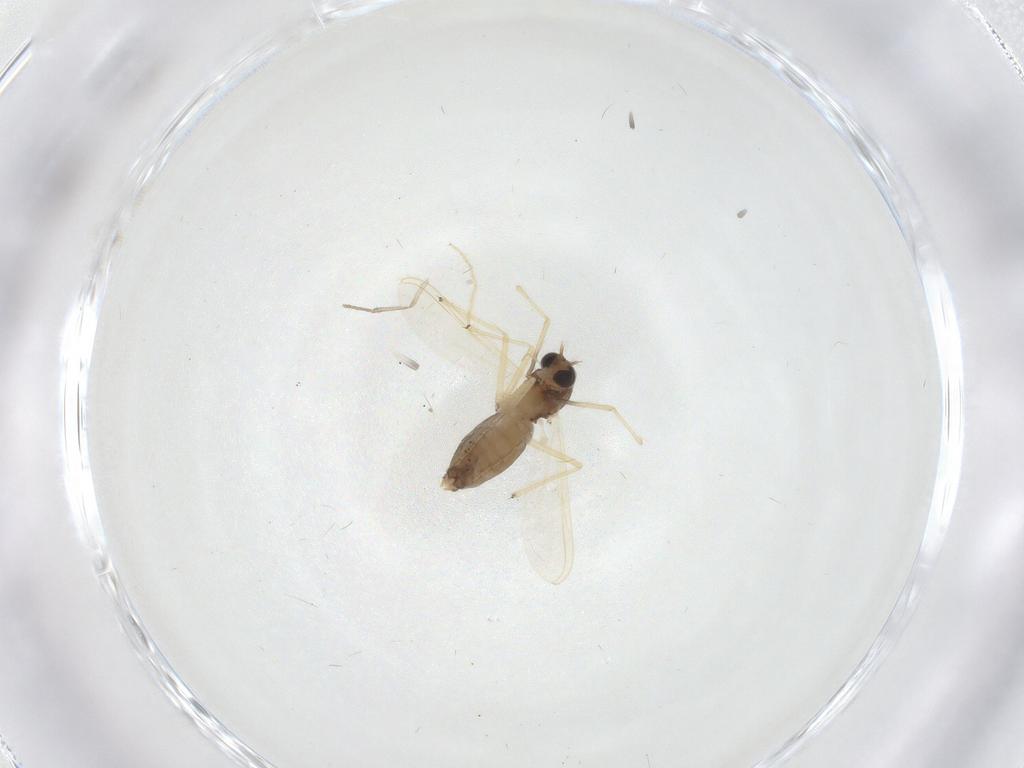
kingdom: Animalia
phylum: Arthropoda
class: Insecta
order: Diptera
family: Chironomidae
